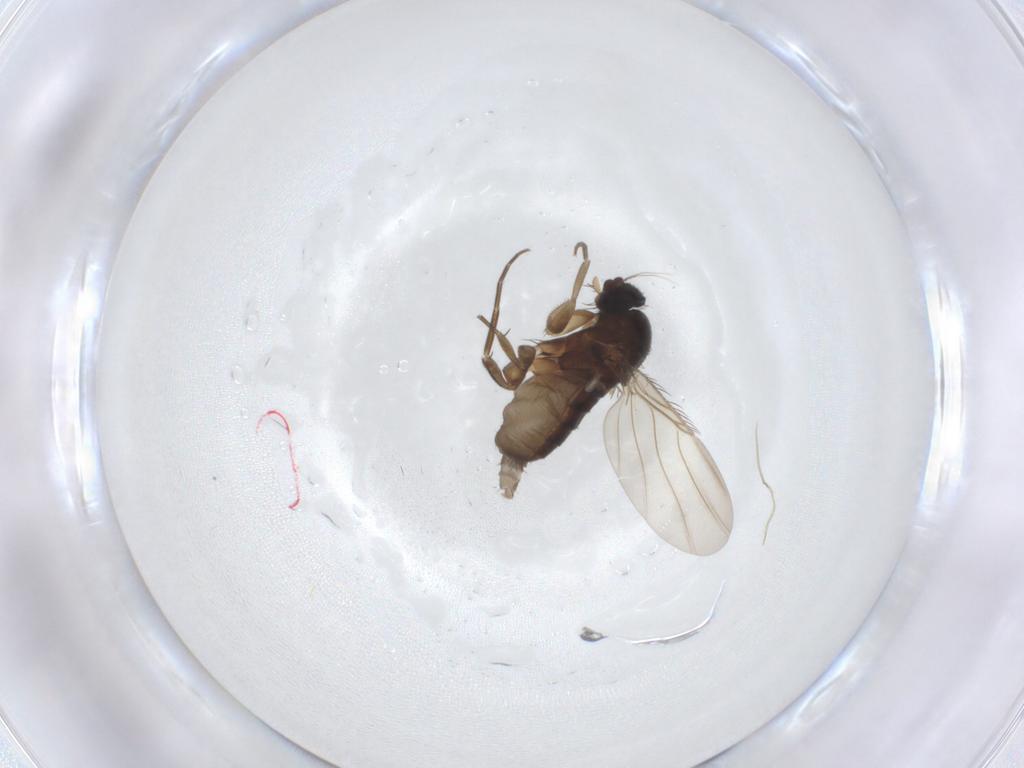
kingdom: Animalia
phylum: Arthropoda
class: Insecta
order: Diptera
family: Phoridae
